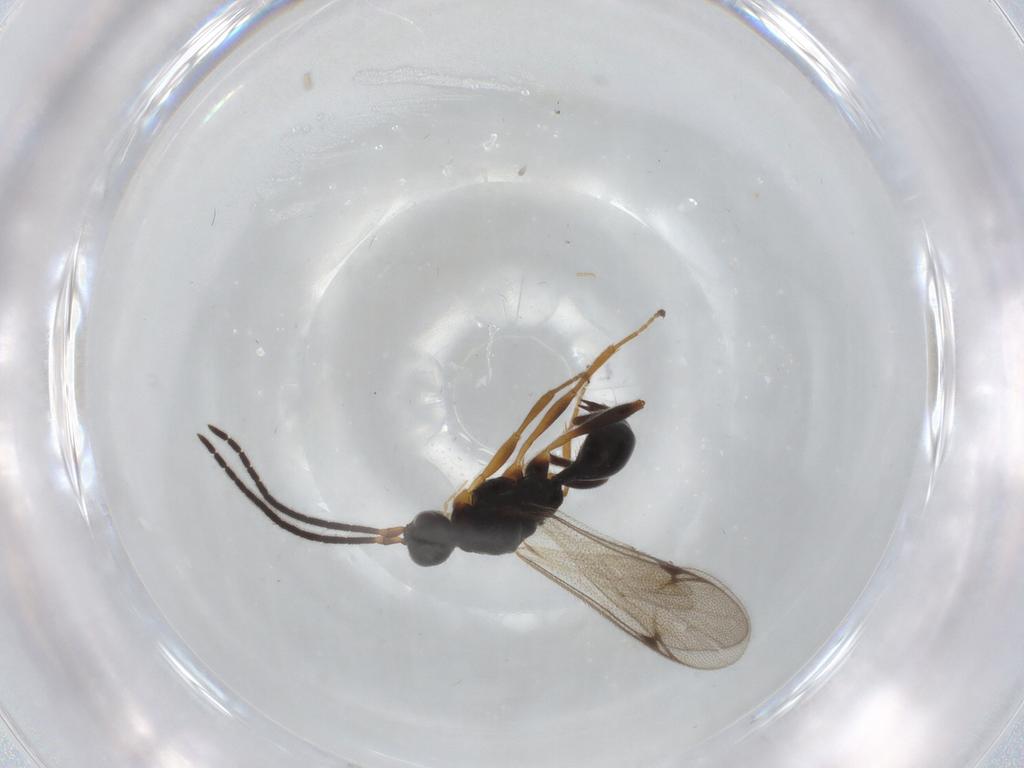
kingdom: Animalia
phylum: Arthropoda
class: Insecta
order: Hymenoptera
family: Proctotrupidae
